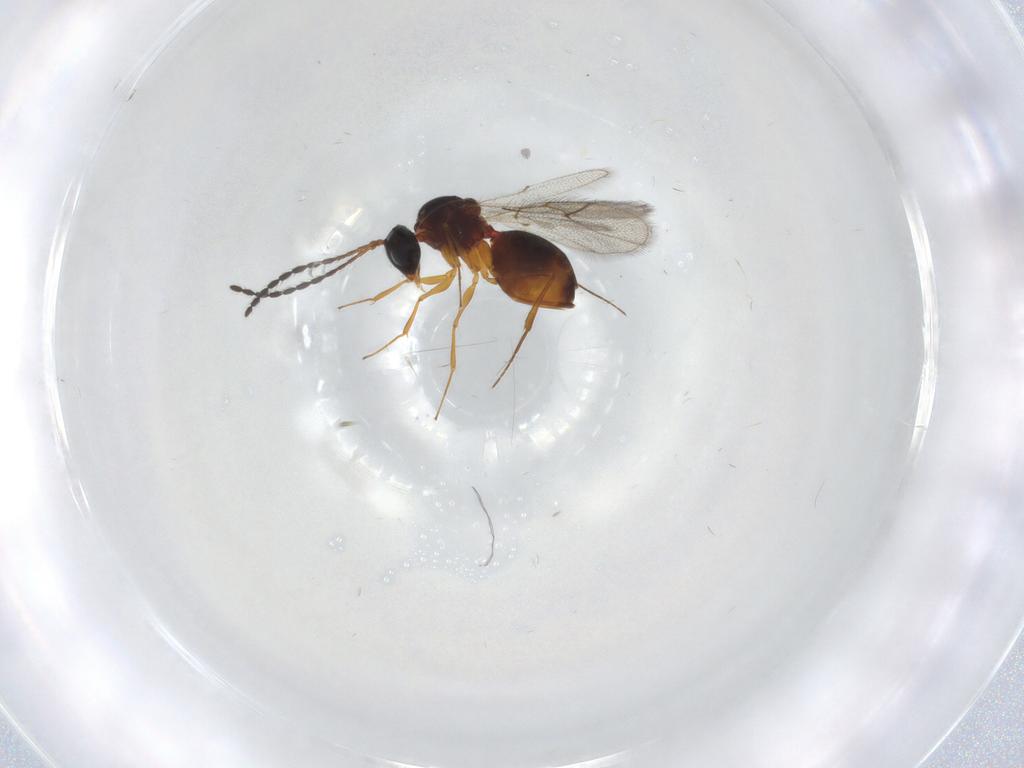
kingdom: Animalia
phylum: Arthropoda
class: Insecta
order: Hymenoptera
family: Figitidae
